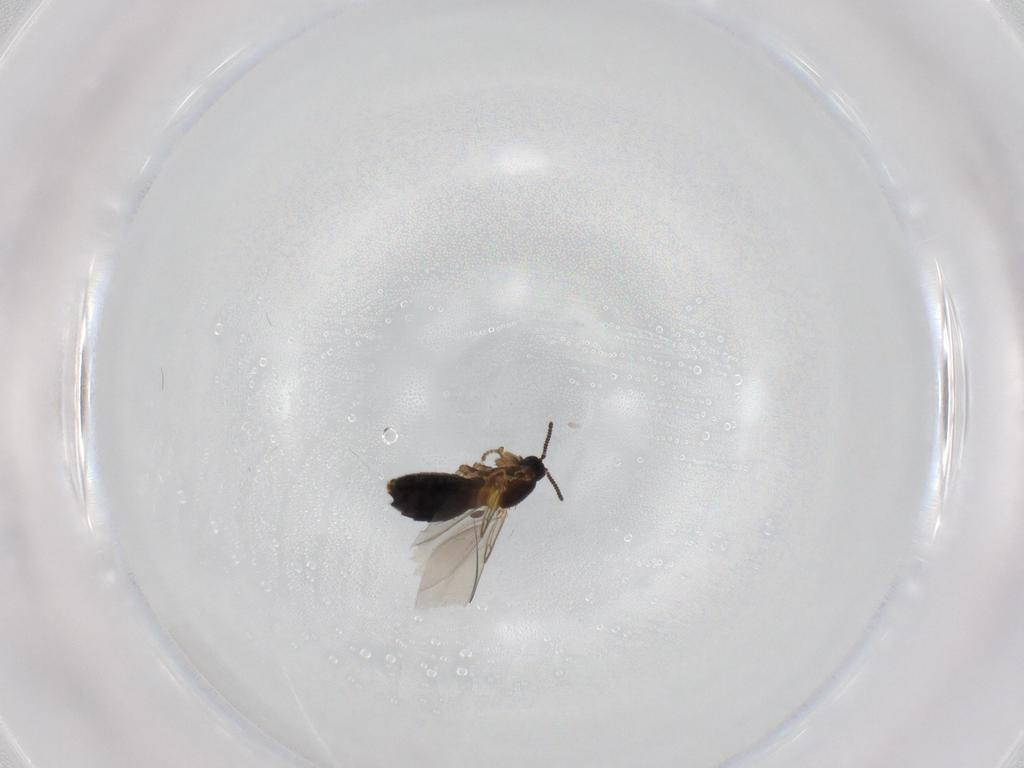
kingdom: Animalia
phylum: Arthropoda
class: Insecta
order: Diptera
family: Scatopsidae
